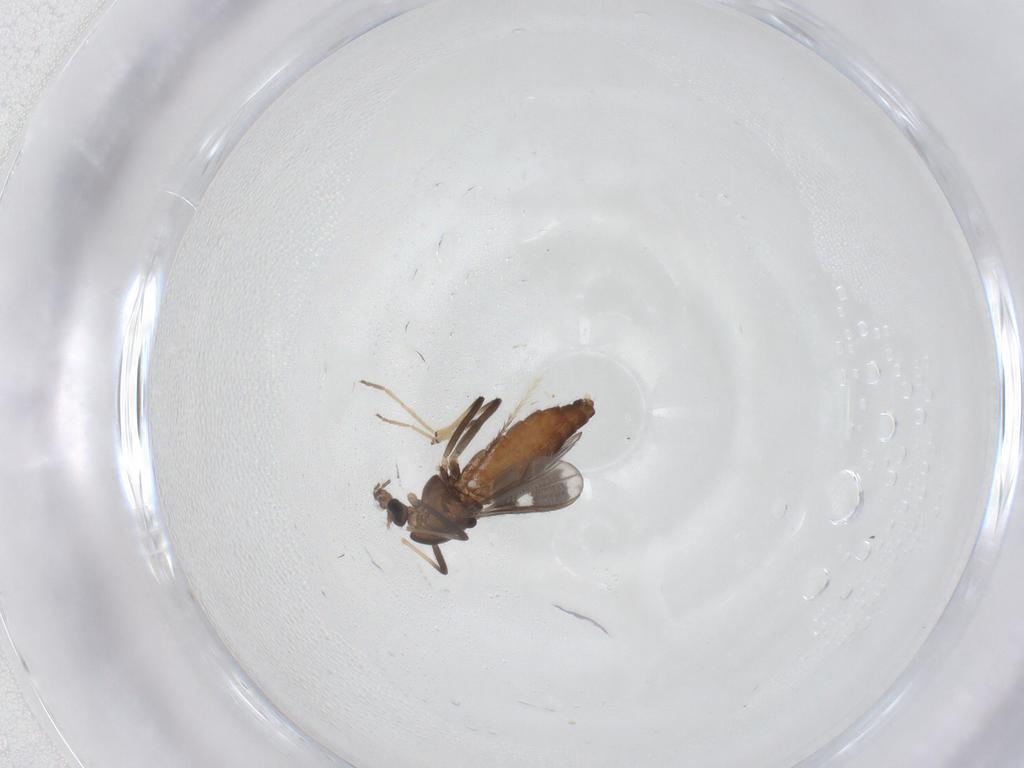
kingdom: Animalia
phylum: Arthropoda
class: Insecta
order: Diptera
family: Chironomidae
